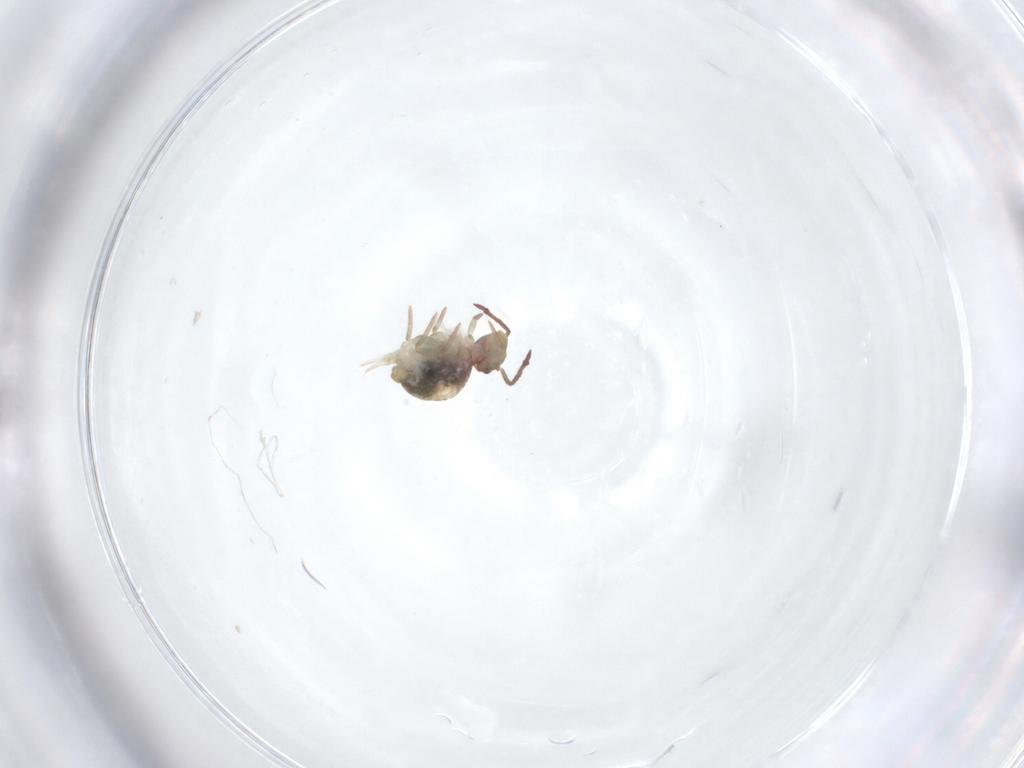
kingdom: Animalia
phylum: Arthropoda
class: Collembola
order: Symphypleona
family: Dicyrtomidae
